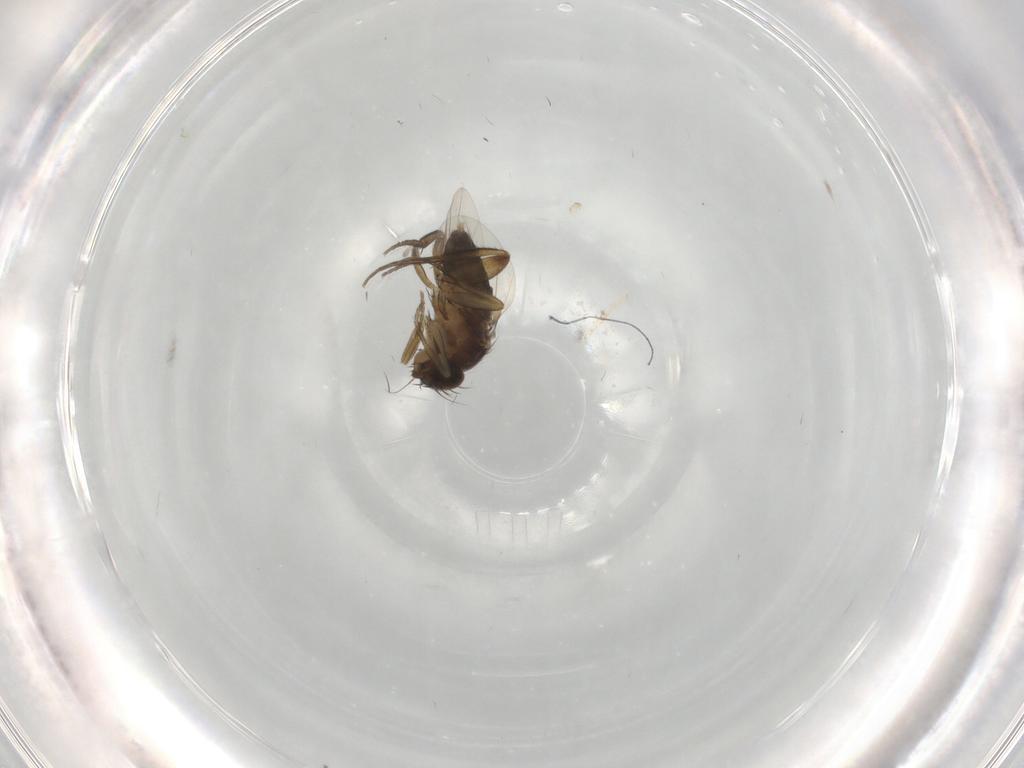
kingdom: Animalia
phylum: Arthropoda
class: Insecta
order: Diptera
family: Phoridae
